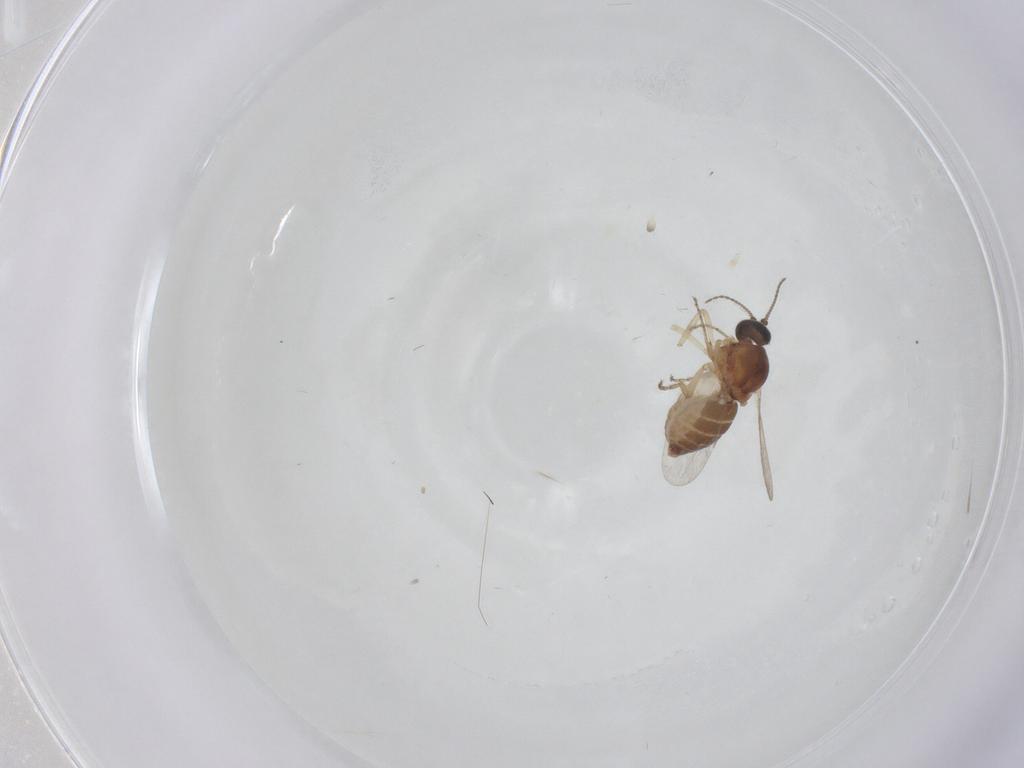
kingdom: Animalia
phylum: Arthropoda
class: Insecta
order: Diptera
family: Ceratopogonidae
